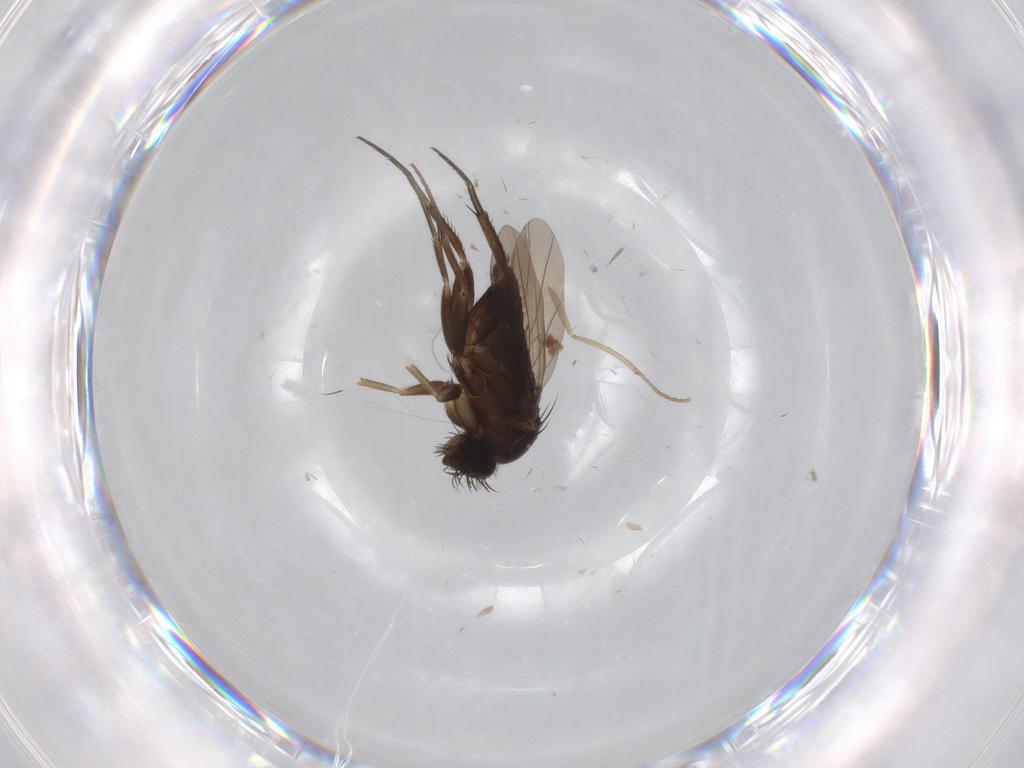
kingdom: Animalia
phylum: Arthropoda
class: Insecta
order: Diptera
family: Phoridae
